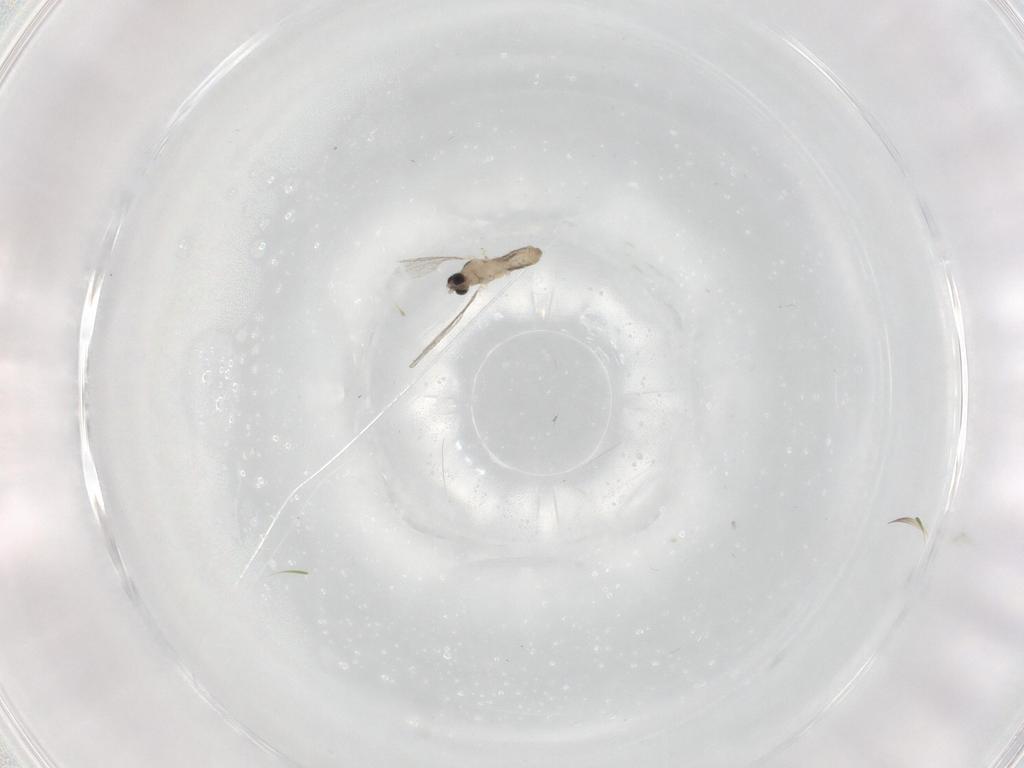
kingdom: Animalia
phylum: Arthropoda
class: Insecta
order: Diptera
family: Cecidomyiidae
